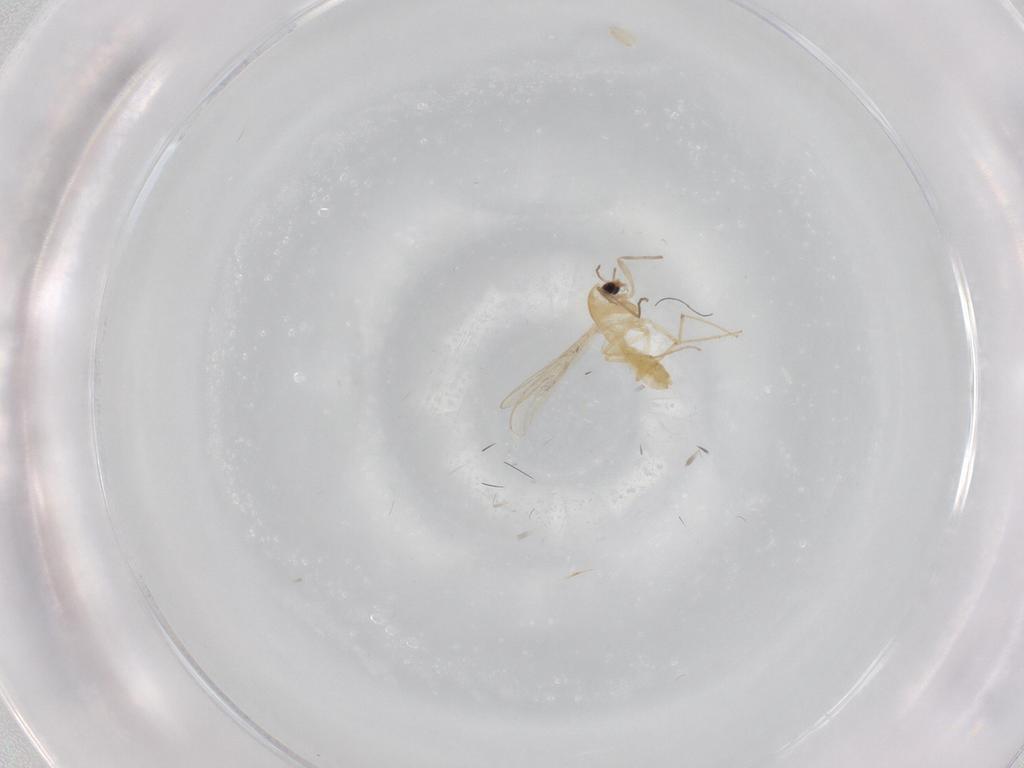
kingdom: Animalia
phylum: Arthropoda
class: Insecta
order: Diptera
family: Chironomidae
